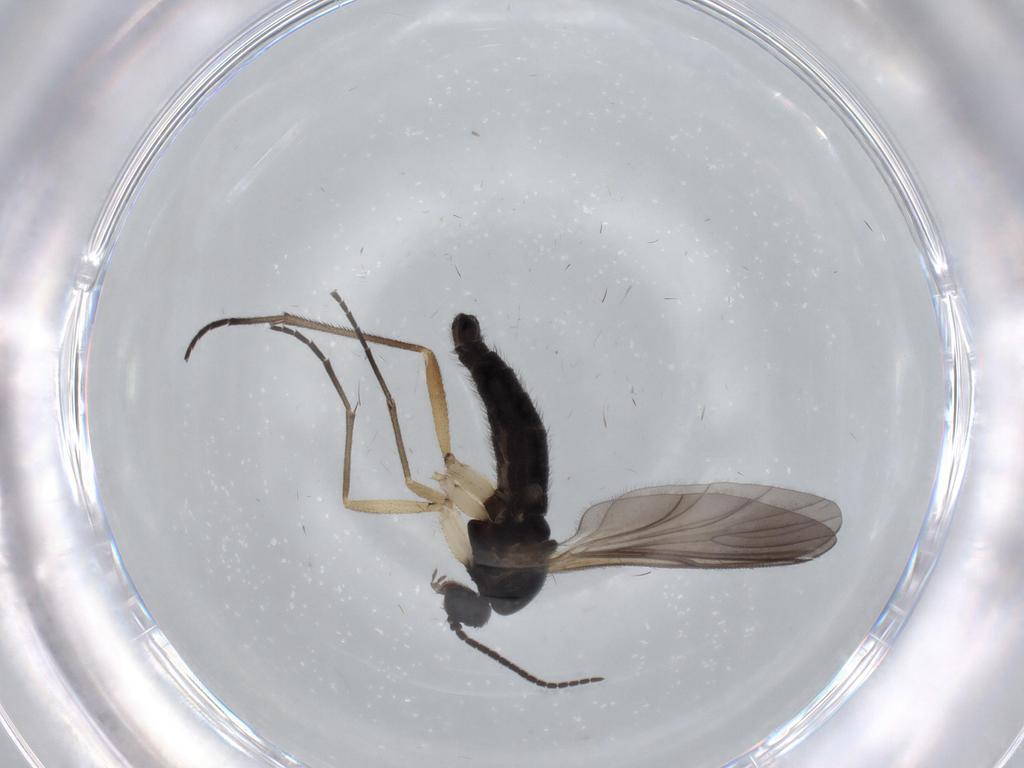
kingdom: Animalia
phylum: Arthropoda
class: Insecta
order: Diptera
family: Sciaridae
